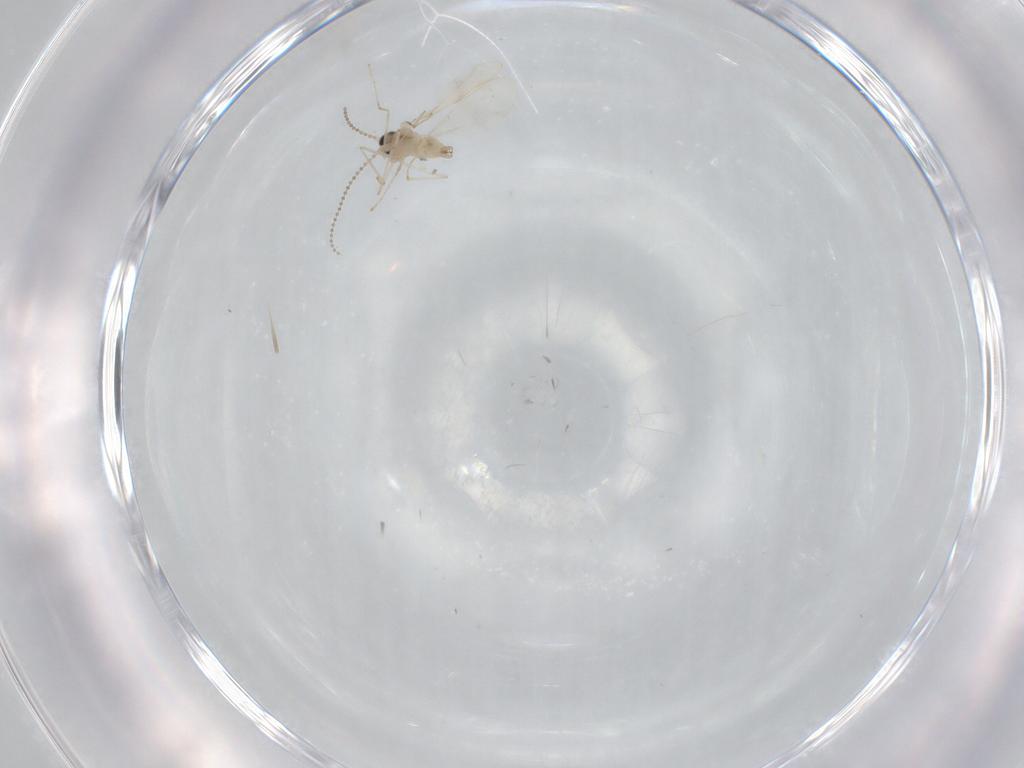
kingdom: Animalia
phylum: Arthropoda
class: Insecta
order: Diptera
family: Cecidomyiidae
